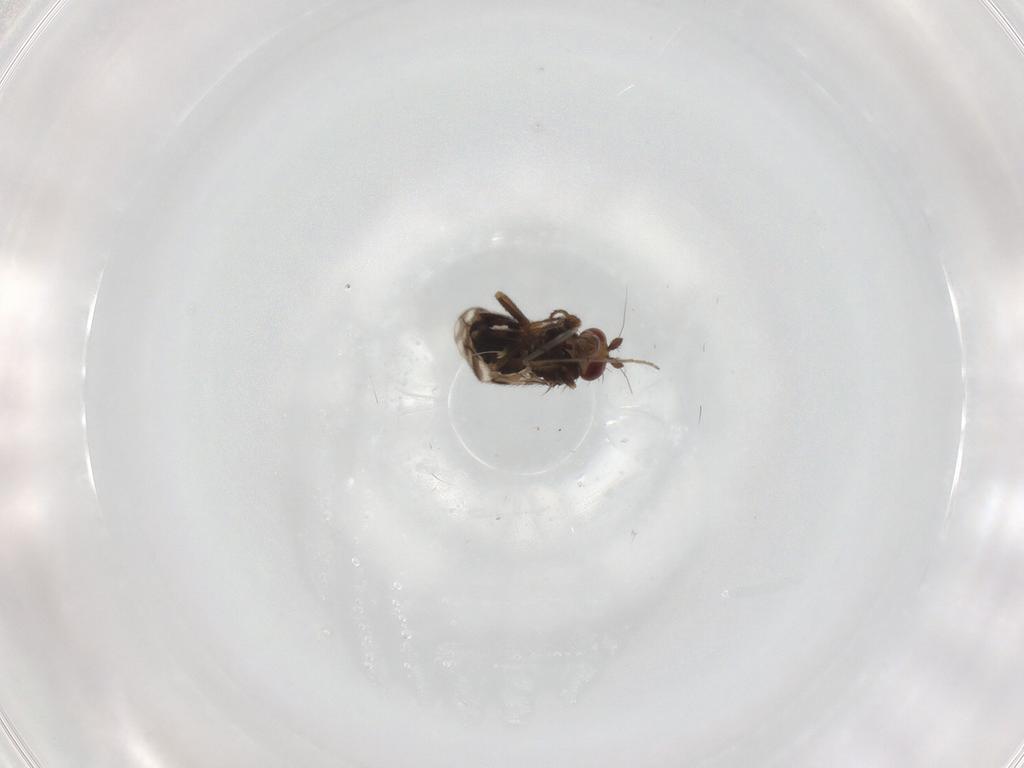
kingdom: Animalia
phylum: Arthropoda
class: Insecta
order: Diptera
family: Sphaeroceridae
